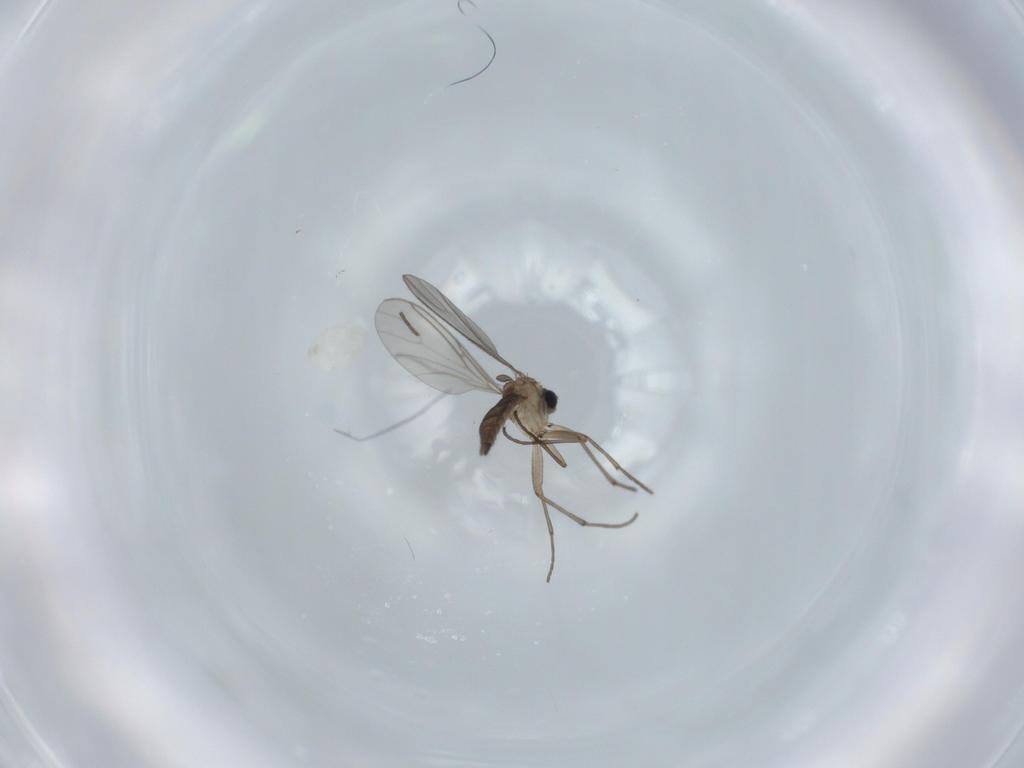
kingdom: Animalia
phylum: Arthropoda
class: Insecta
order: Diptera
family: Sciaridae
